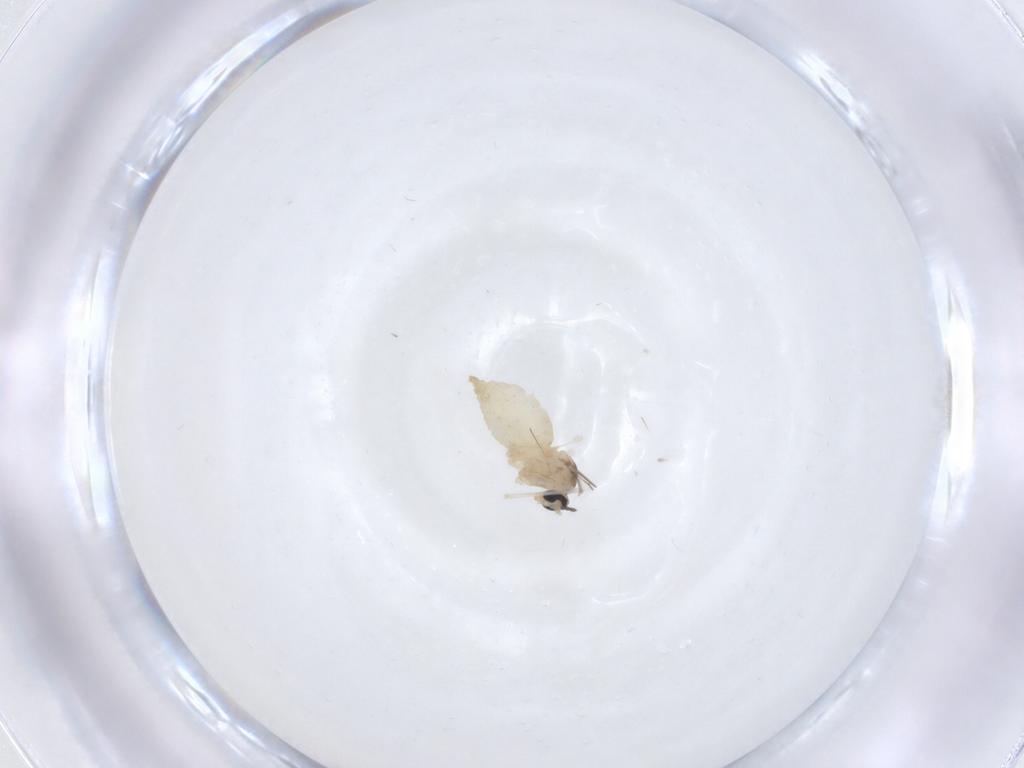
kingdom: Animalia
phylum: Arthropoda
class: Insecta
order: Diptera
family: Cecidomyiidae
